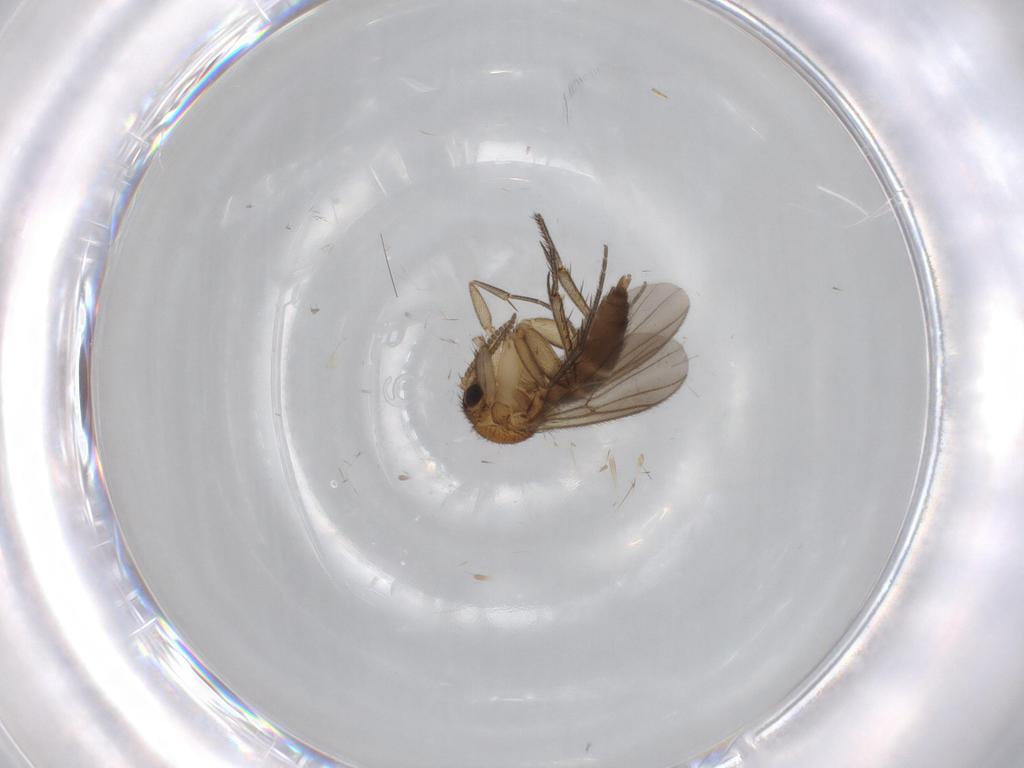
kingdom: Animalia
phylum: Arthropoda
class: Insecta
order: Diptera
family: Mycetophilidae
